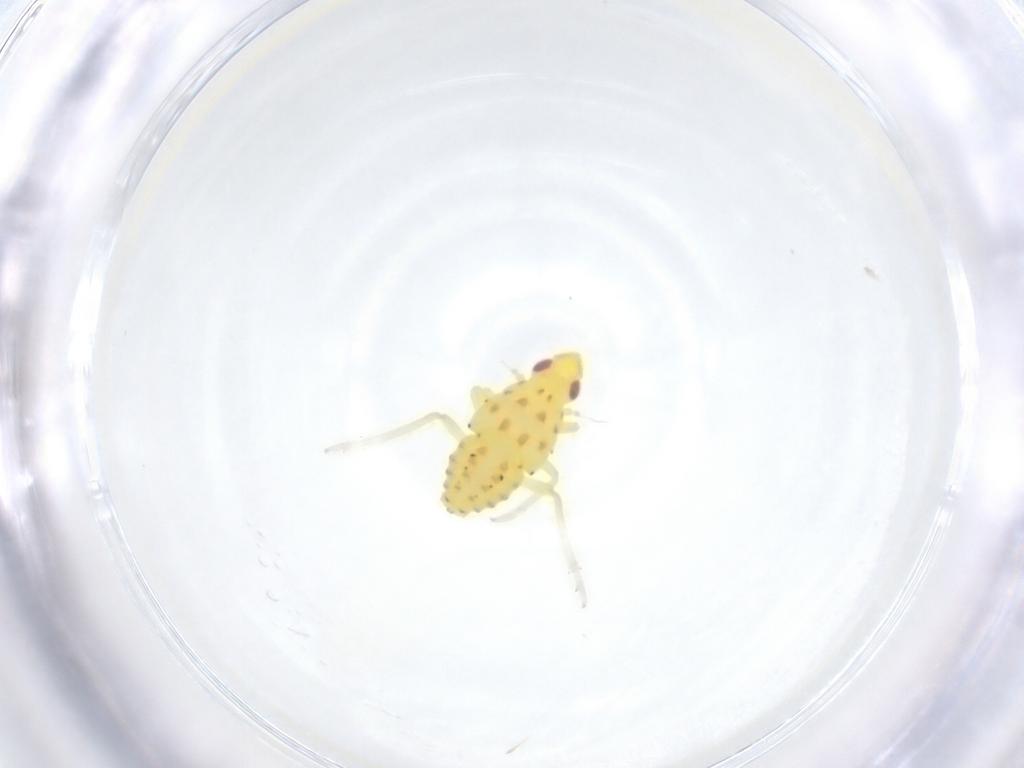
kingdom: Animalia
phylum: Arthropoda
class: Insecta
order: Hemiptera
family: Tropiduchidae
